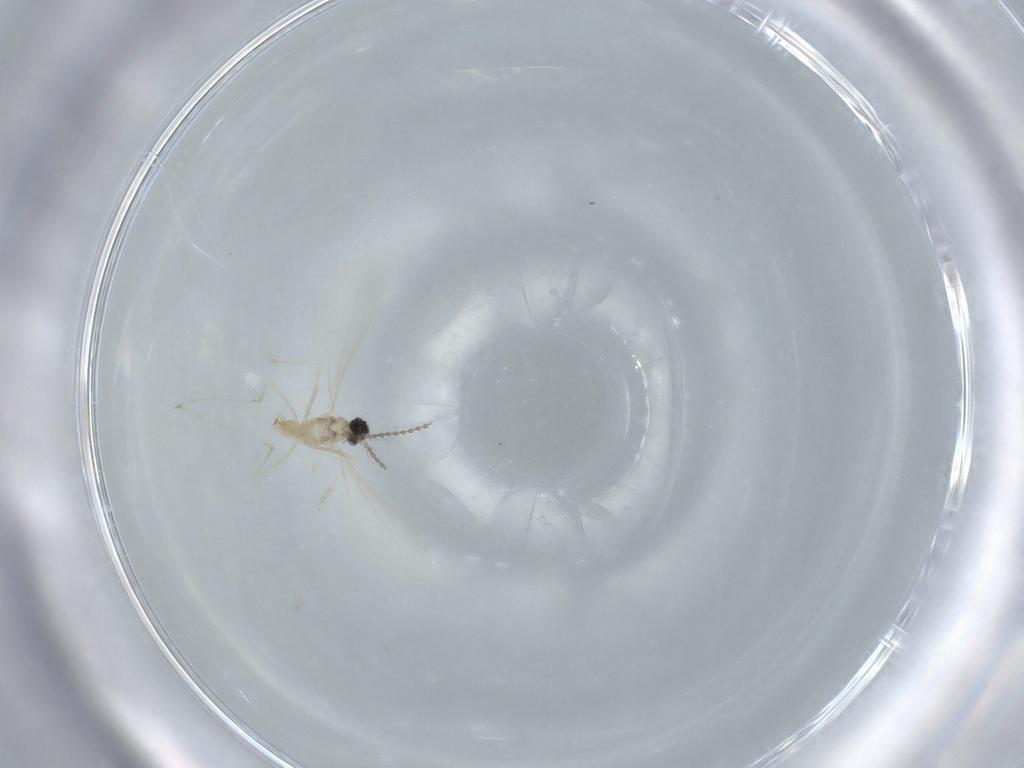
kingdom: Animalia
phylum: Arthropoda
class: Insecta
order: Diptera
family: Cecidomyiidae
